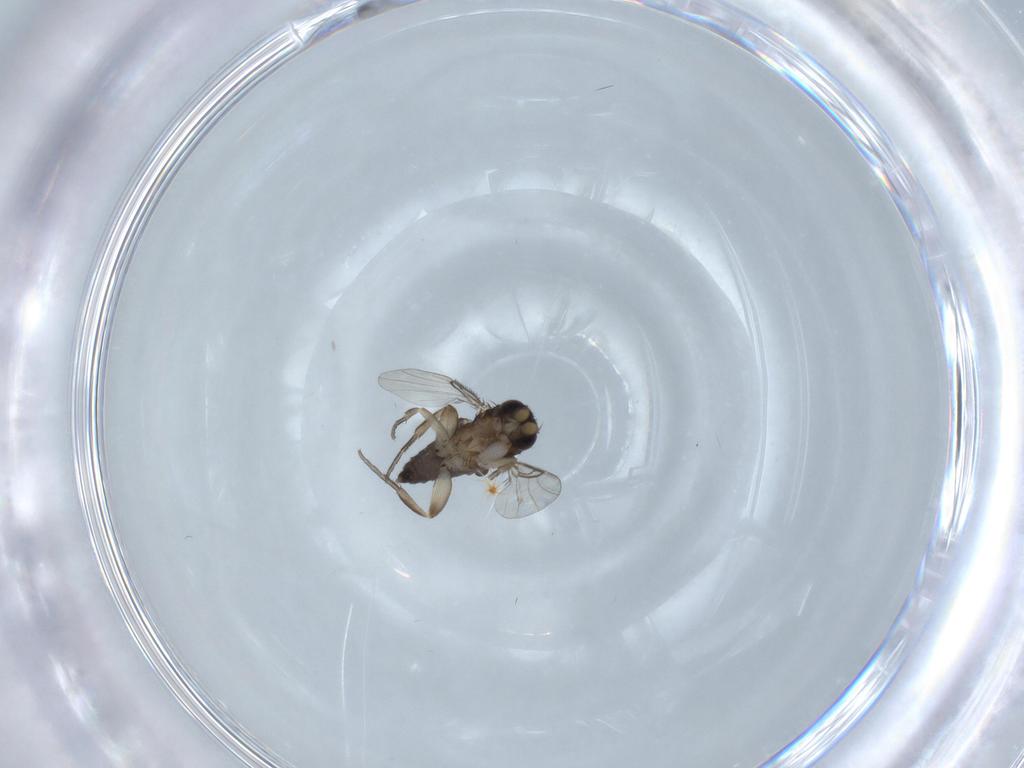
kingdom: Animalia
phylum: Arthropoda
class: Insecta
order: Diptera
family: Phoridae
